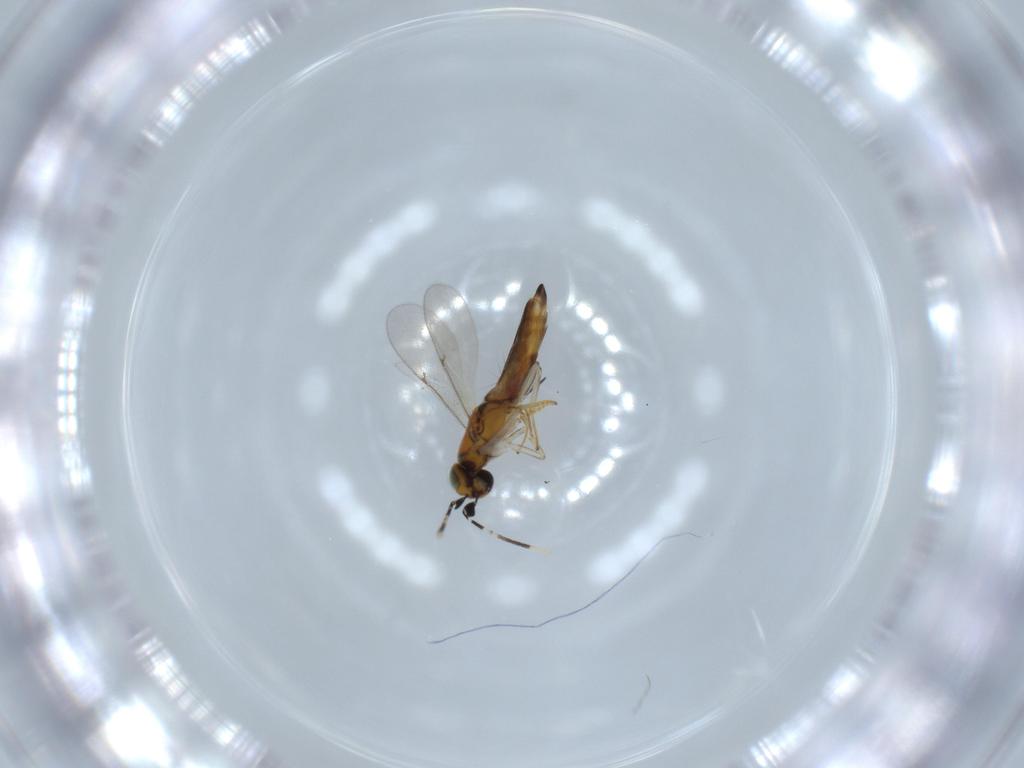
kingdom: Animalia
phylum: Arthropoda
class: Insecta
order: Hymenoptera
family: Encyrtidae
